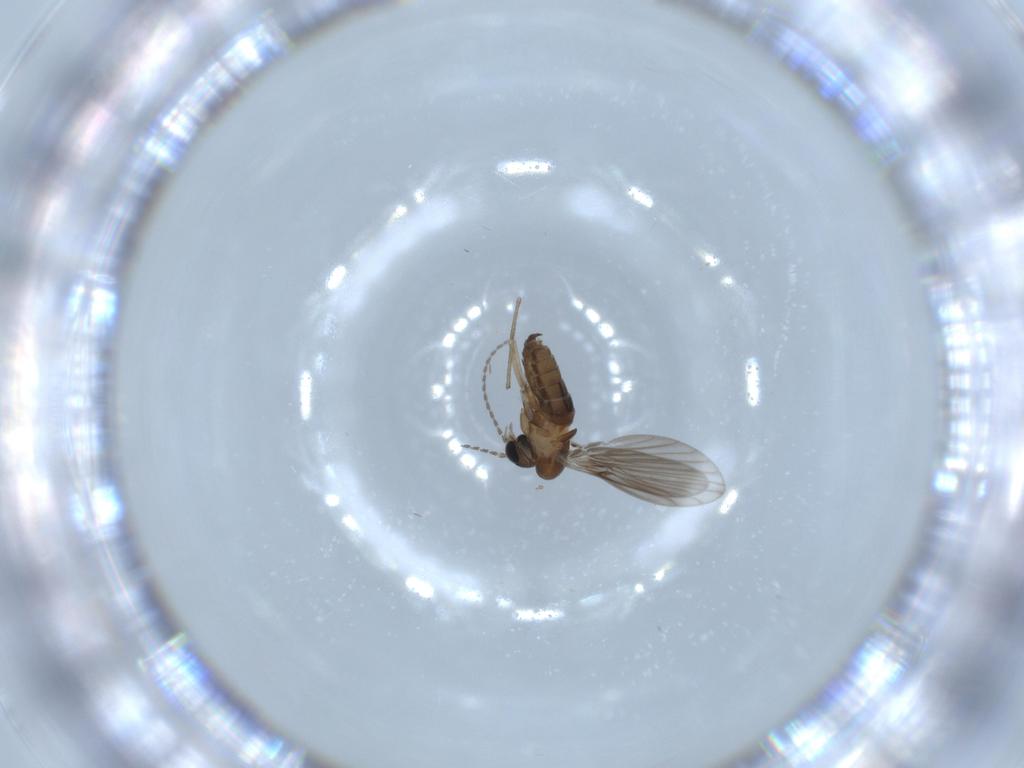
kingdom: Animalia
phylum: Arthropoda
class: Insecta
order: Diptera
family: Psychodidae
